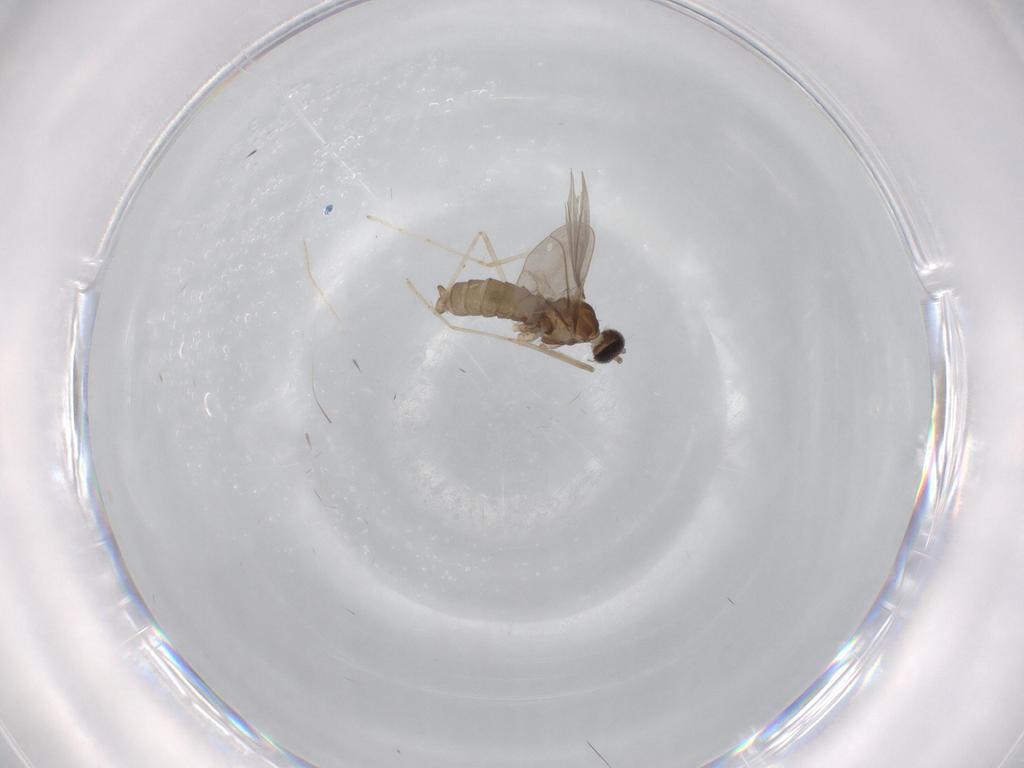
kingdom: Animalia
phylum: Arthropoda
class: Insecta
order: Diptera
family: Cecidomyiidae
